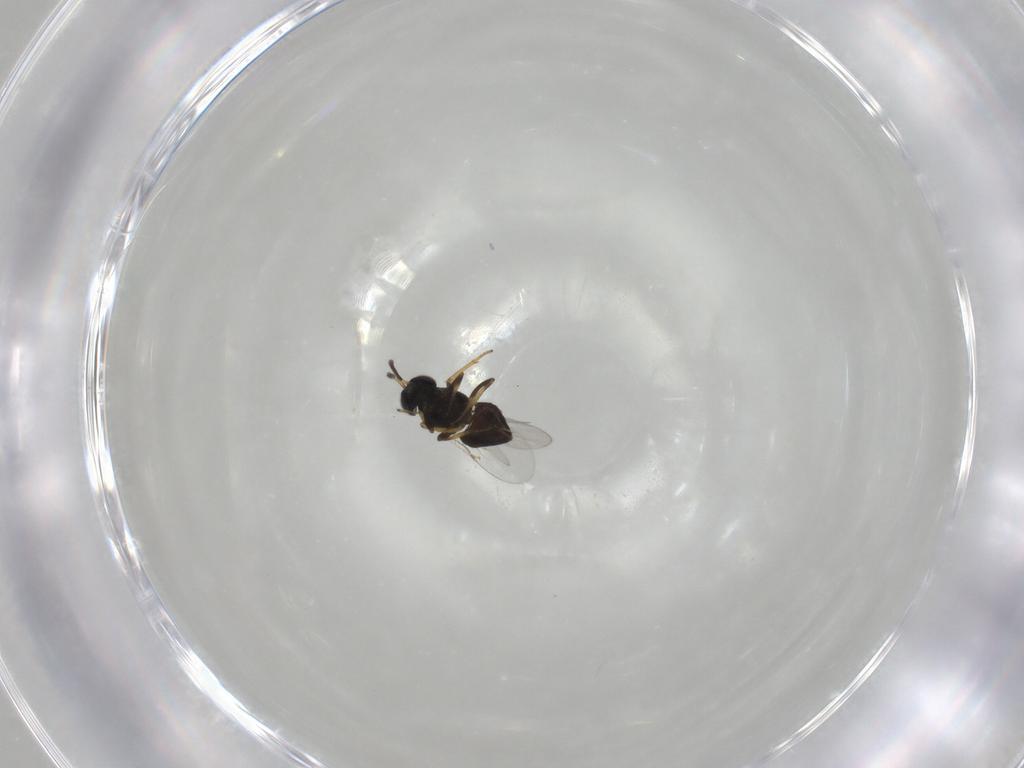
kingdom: Animalia
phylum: Arthropoda
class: Insecta
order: Hymenoptera
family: Encyrtidae
